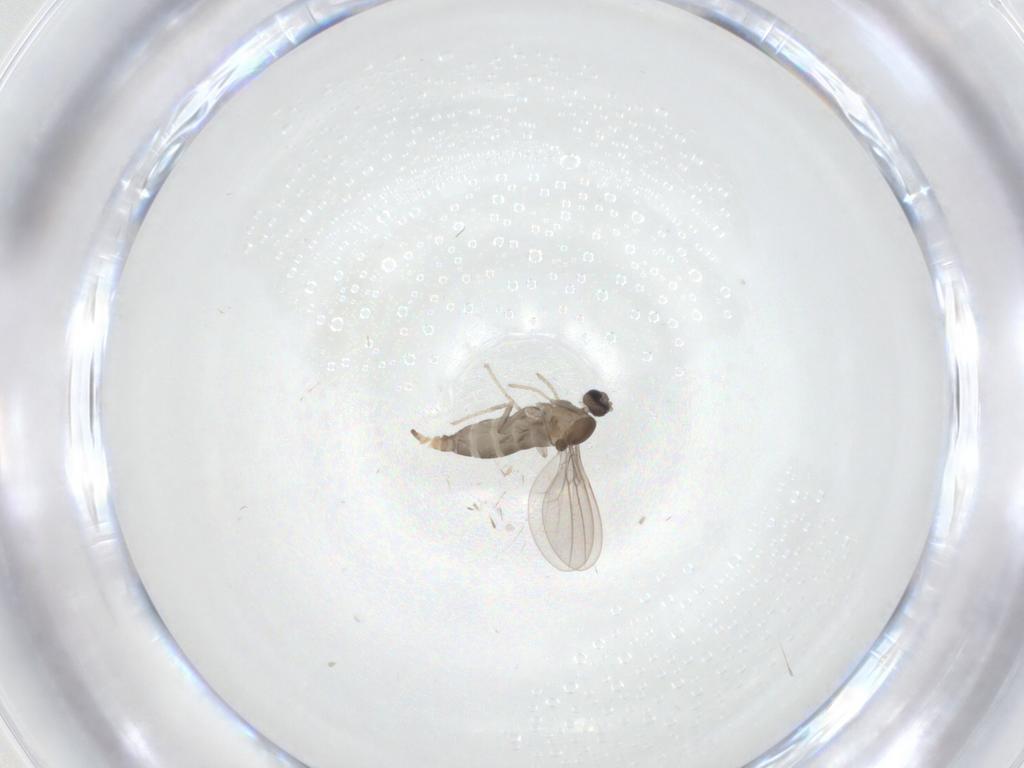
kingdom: Animalia
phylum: Arthropoda
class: Insecta
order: Diptera
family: Cecidomyiidae
